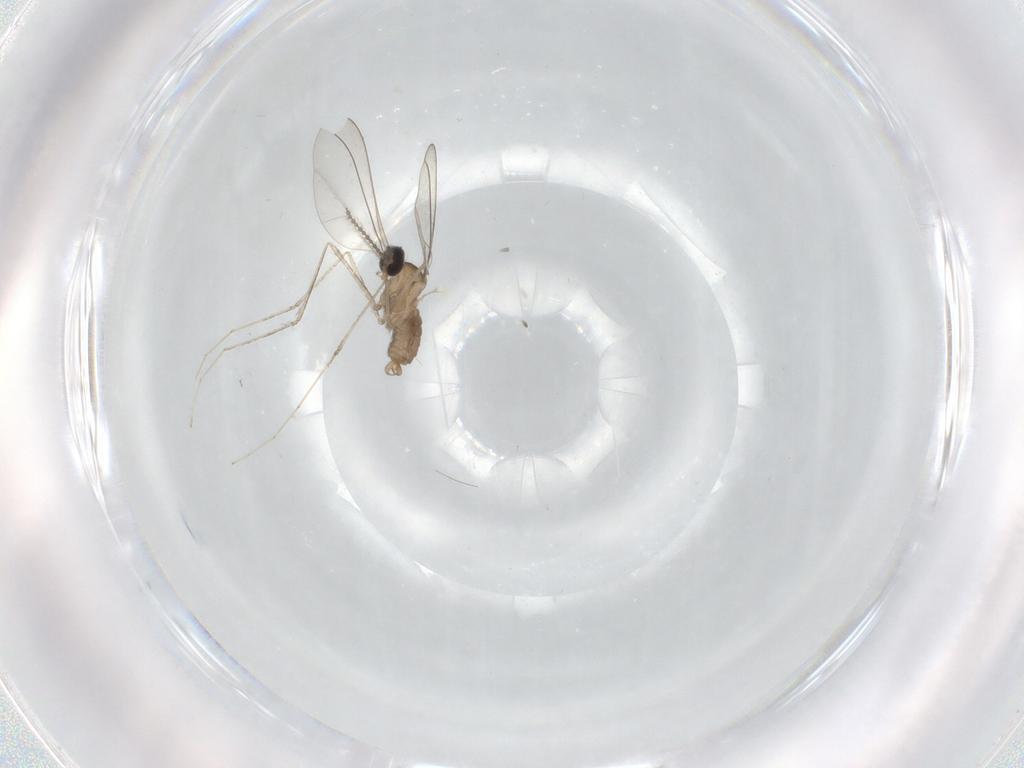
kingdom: Animalia
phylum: Arthropoda
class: Insecta
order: Diptera
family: Cecidomyiidae
